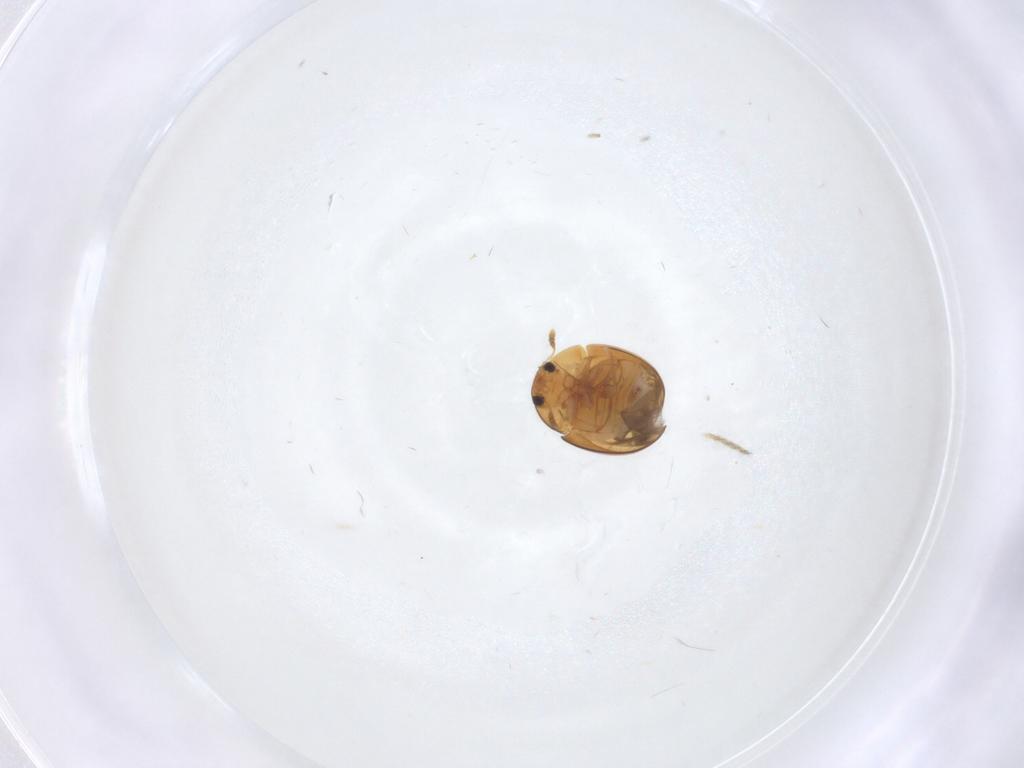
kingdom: Animalia
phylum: Arthropoda
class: Insecta
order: Coleoptera
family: Phalacridae
